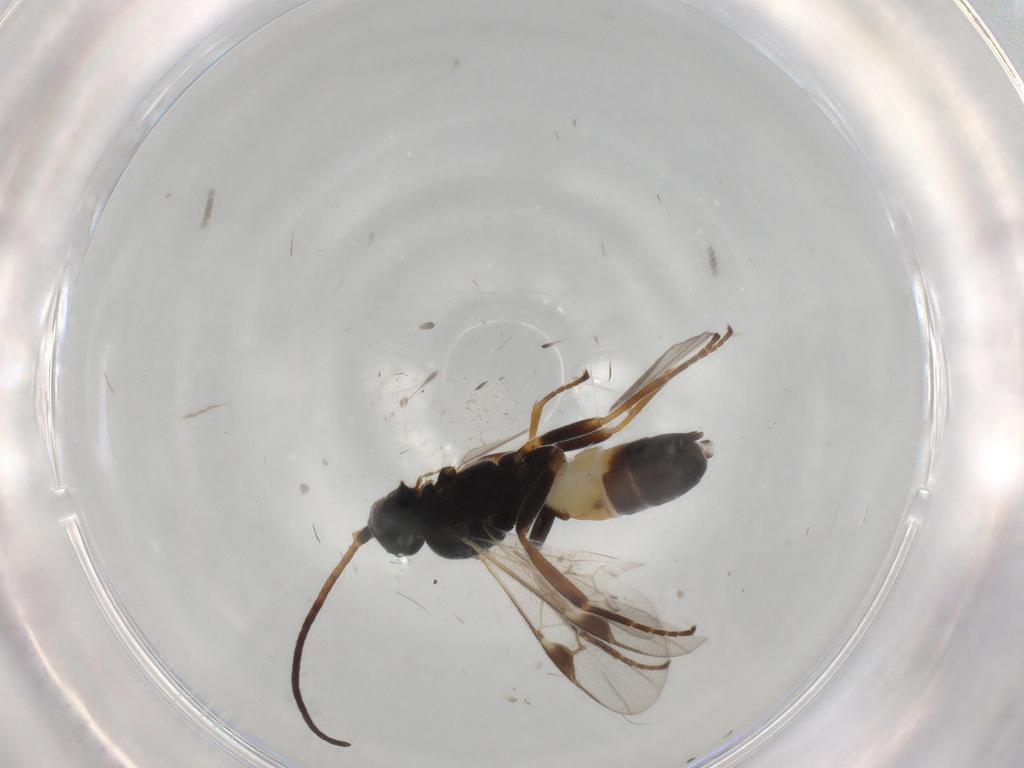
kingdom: Animalia
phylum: Arthropoda
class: Insecta
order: Hymenoptera
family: Braconidae
